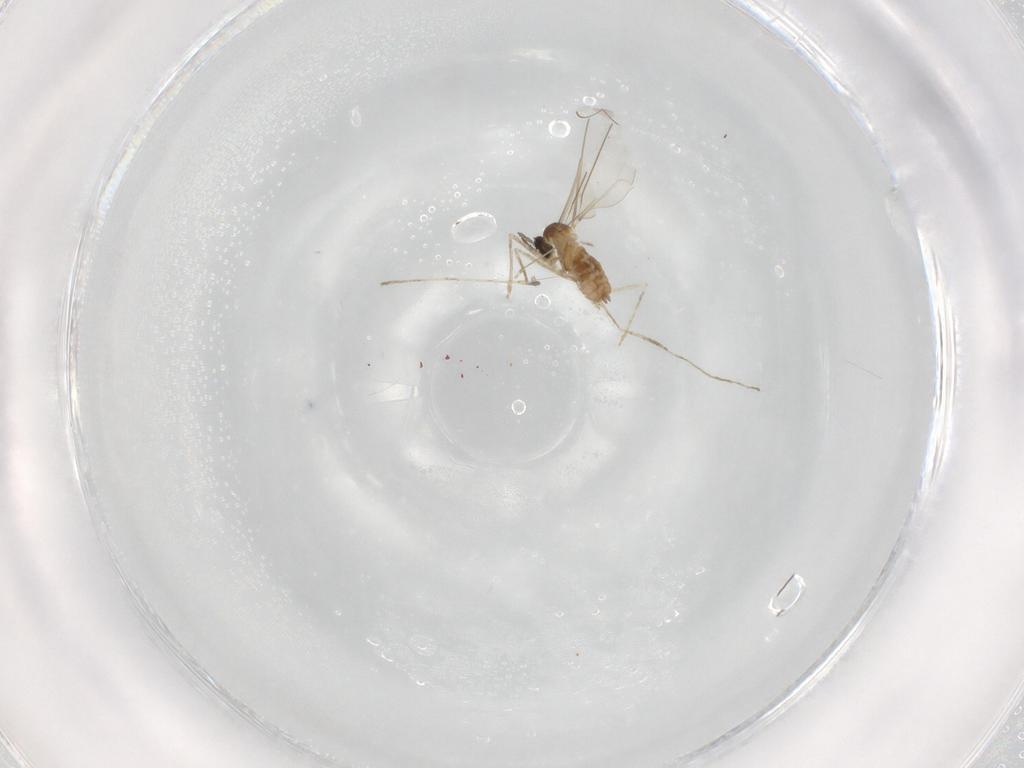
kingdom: Animalia
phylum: Arthropoda
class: Insecta
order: Diptera
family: Cecidomyiidae
